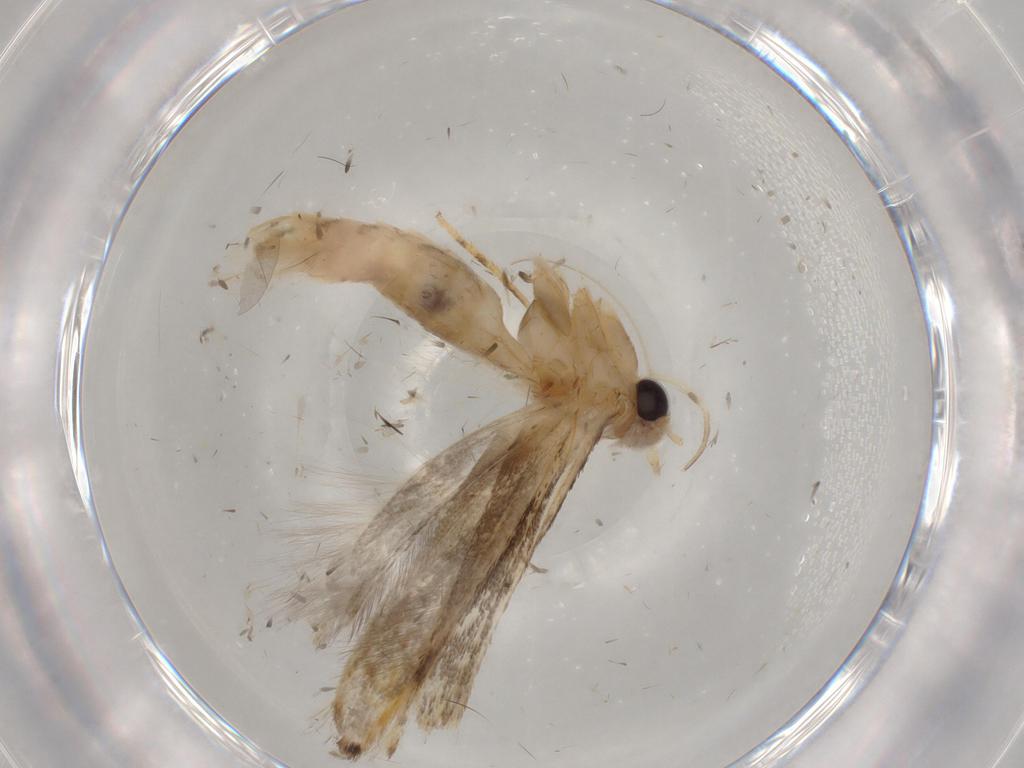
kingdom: Animalia
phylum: Arthropoda
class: Insecta
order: Lepidoptera
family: Gelechiidae
